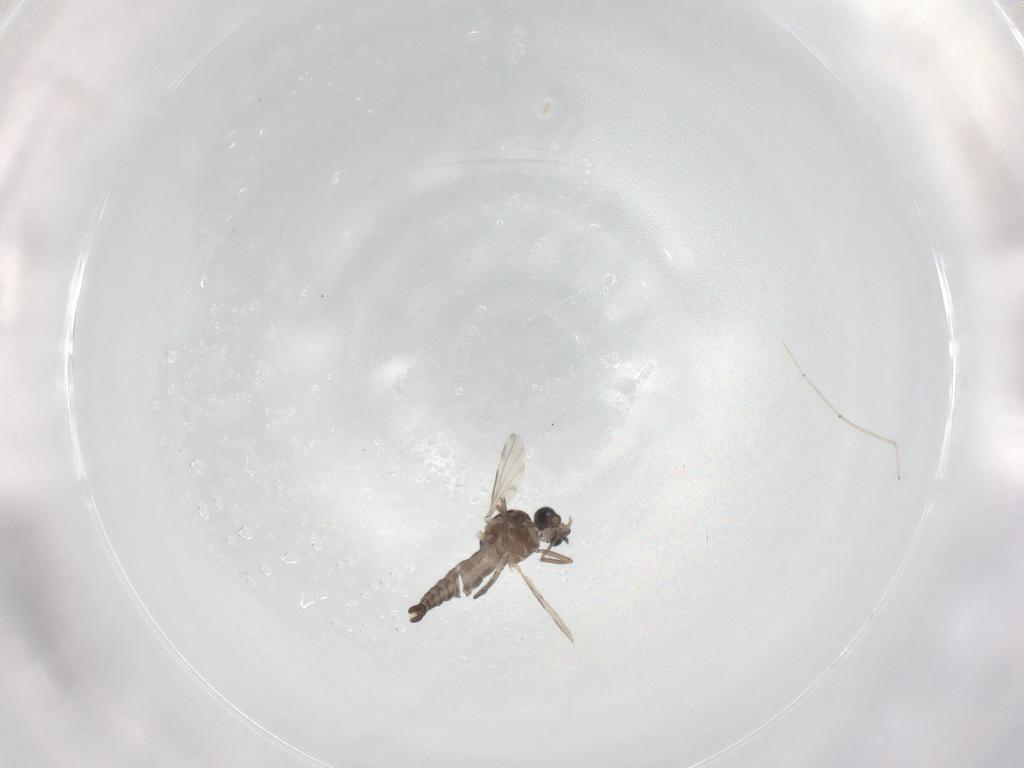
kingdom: Animalia
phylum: Arthropoda
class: Insecta
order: Diptera
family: Ceratopogonidae
